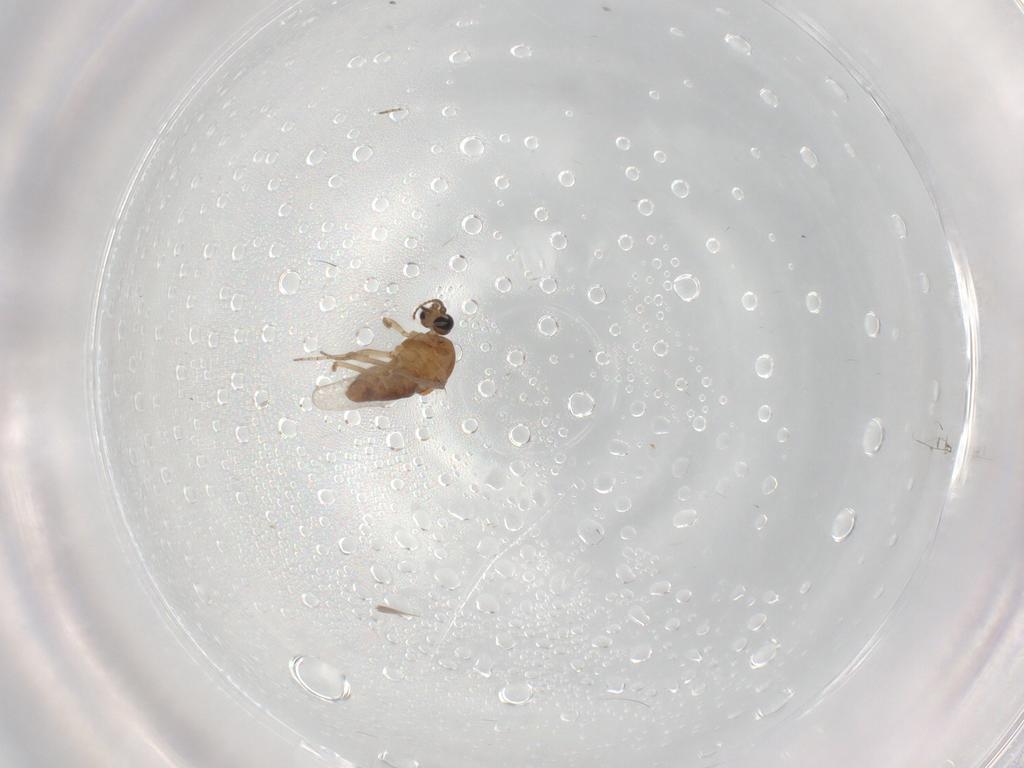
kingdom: Animalia
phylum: Arthropoda
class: Insecta
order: Diptera
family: Ceratopogonidae
